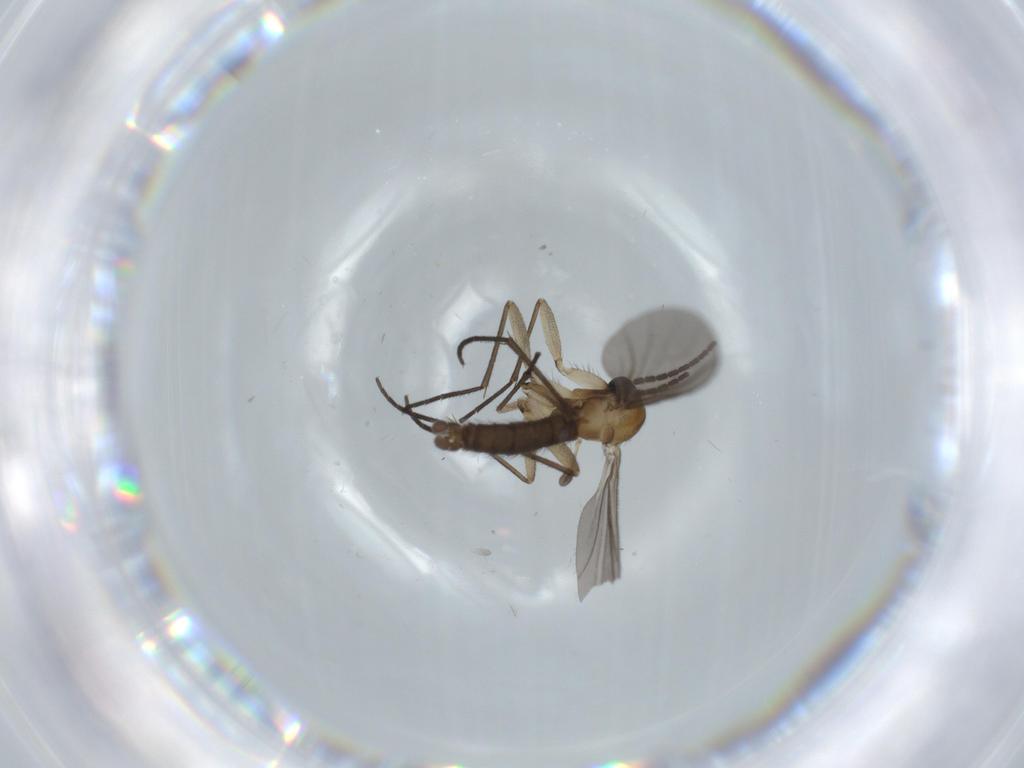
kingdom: Animalia
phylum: Arthropoda
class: Insecta
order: Diptera
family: Sciaridae
